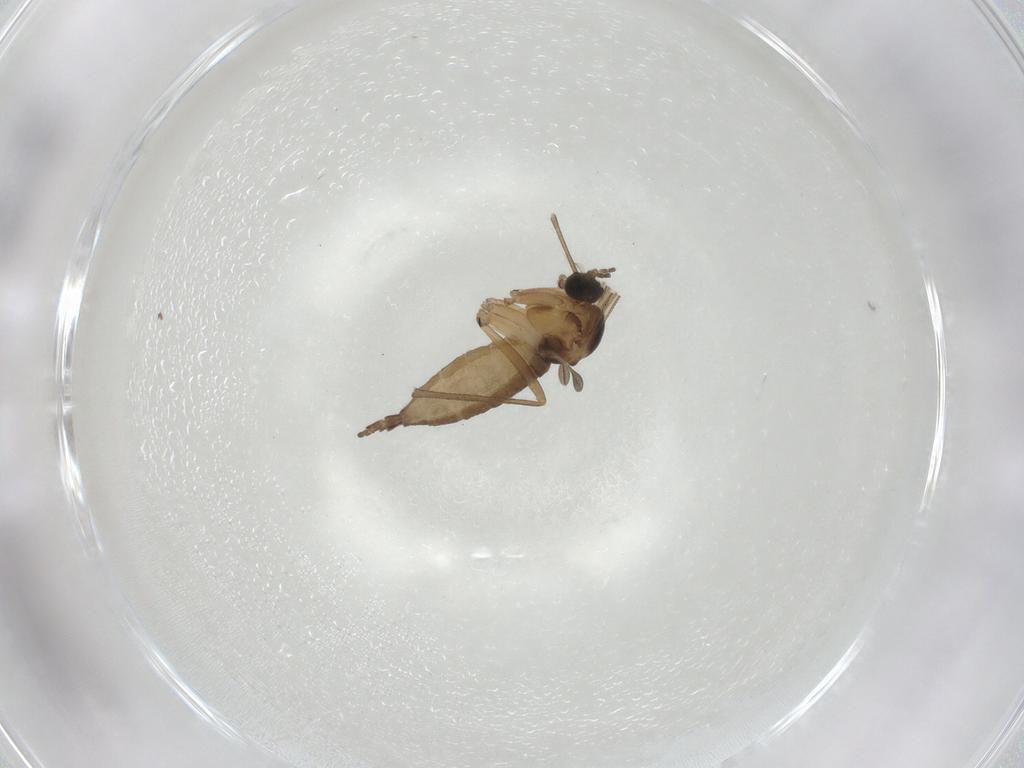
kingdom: Animalia
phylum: Arthropoda
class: Insecta
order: Diptera
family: Sciaridae
